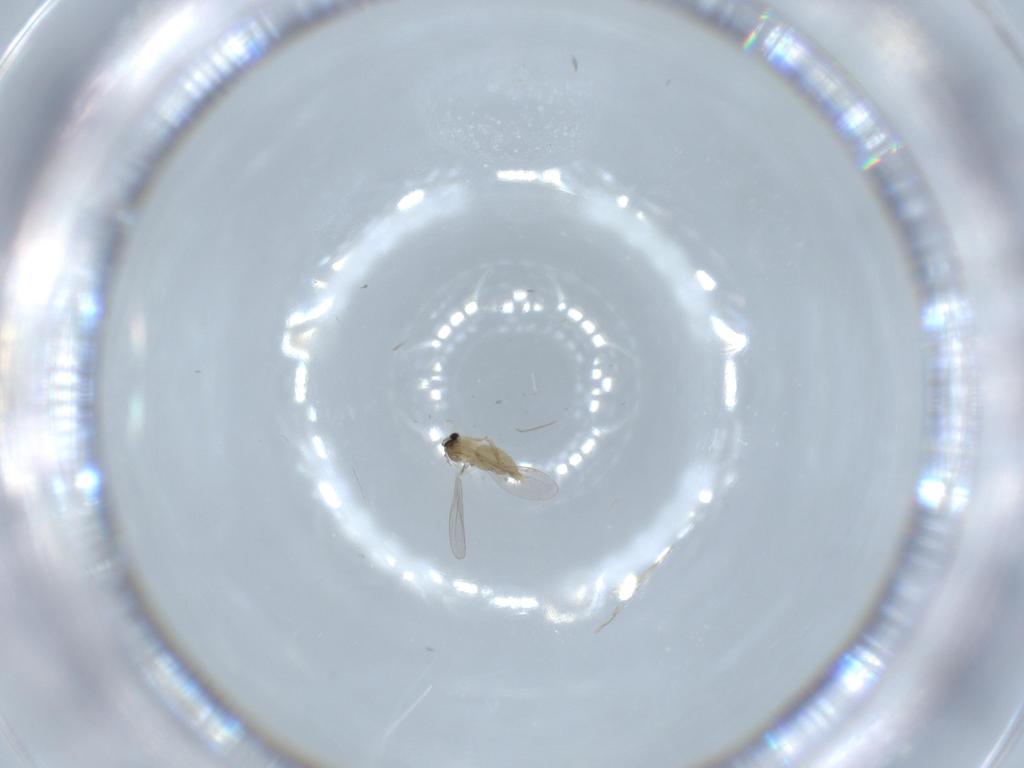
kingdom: Animalia
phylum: Arthropoda
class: Insecta
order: Diptera
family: Cecidomyiidae
